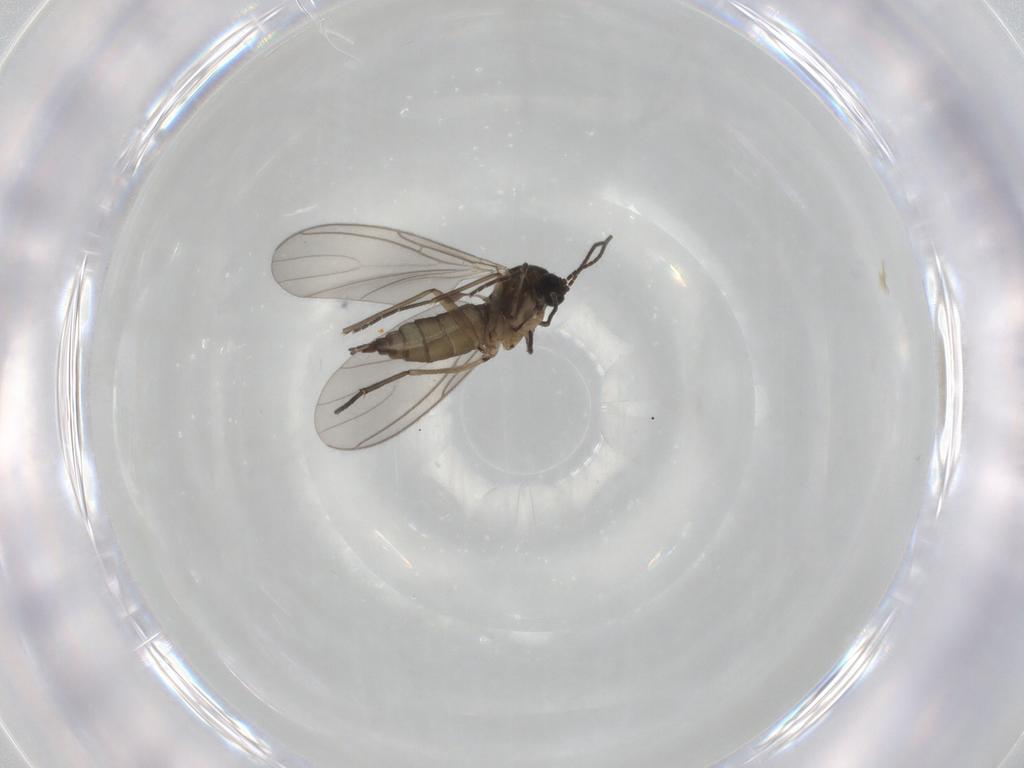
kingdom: Animalia
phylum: Arthropoda
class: Insecta
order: Diptera
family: Sciaridae
